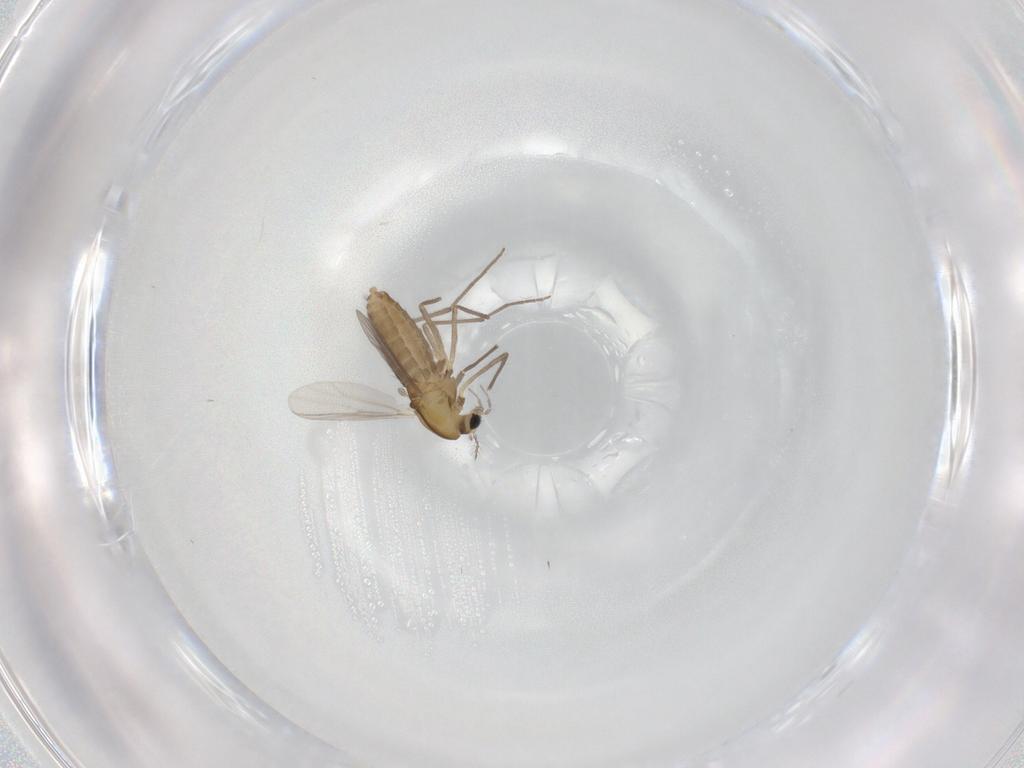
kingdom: Animalia
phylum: Arthropoda
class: Insecta
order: Diptera
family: Chironomidae
